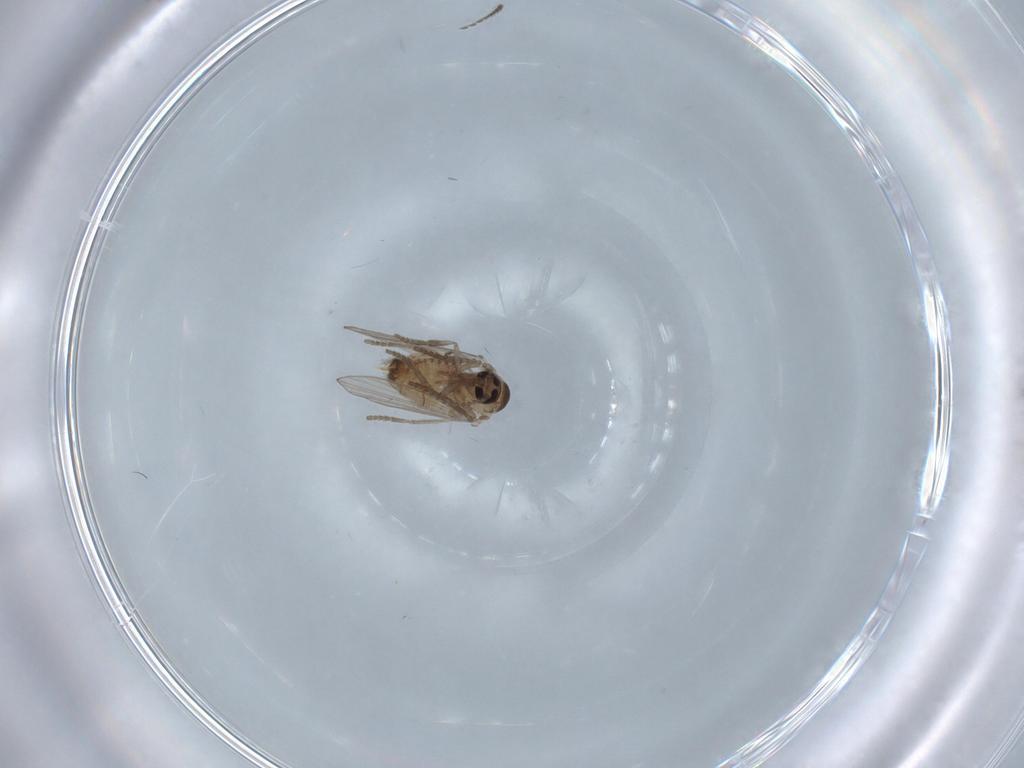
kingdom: Animalia
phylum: Arthropoda
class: Insecta
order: Diptera
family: Psychodidae
